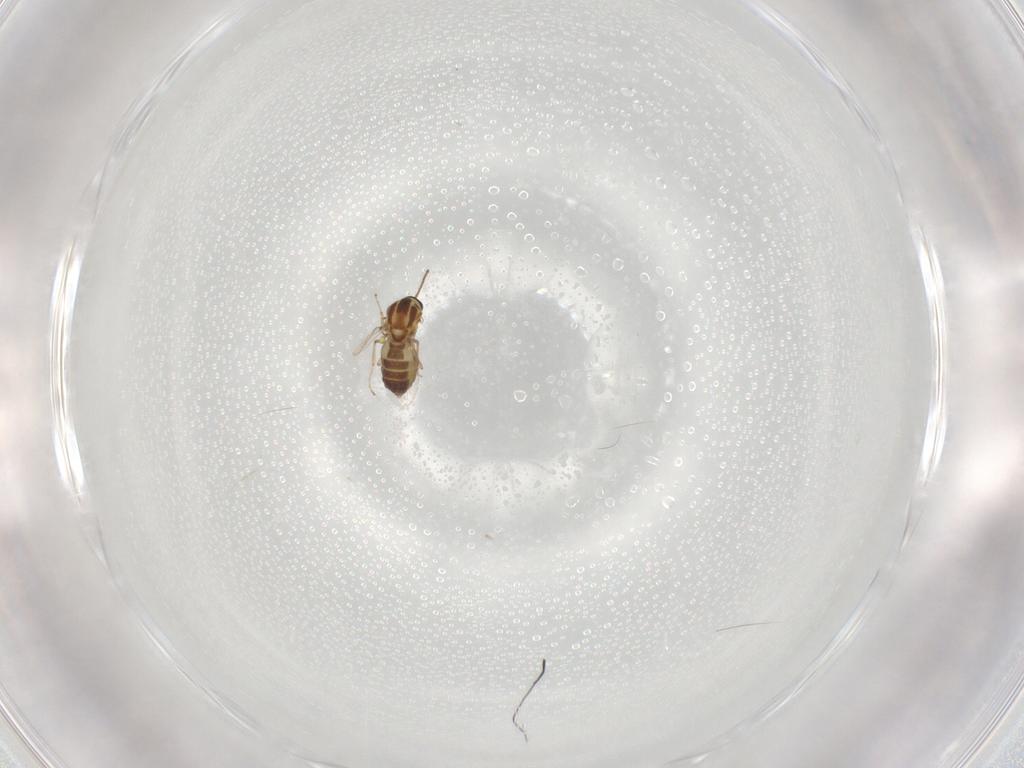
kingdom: Animalia
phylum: Arthropoda
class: Insecta
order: Diptera
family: Ceratopogonidae
